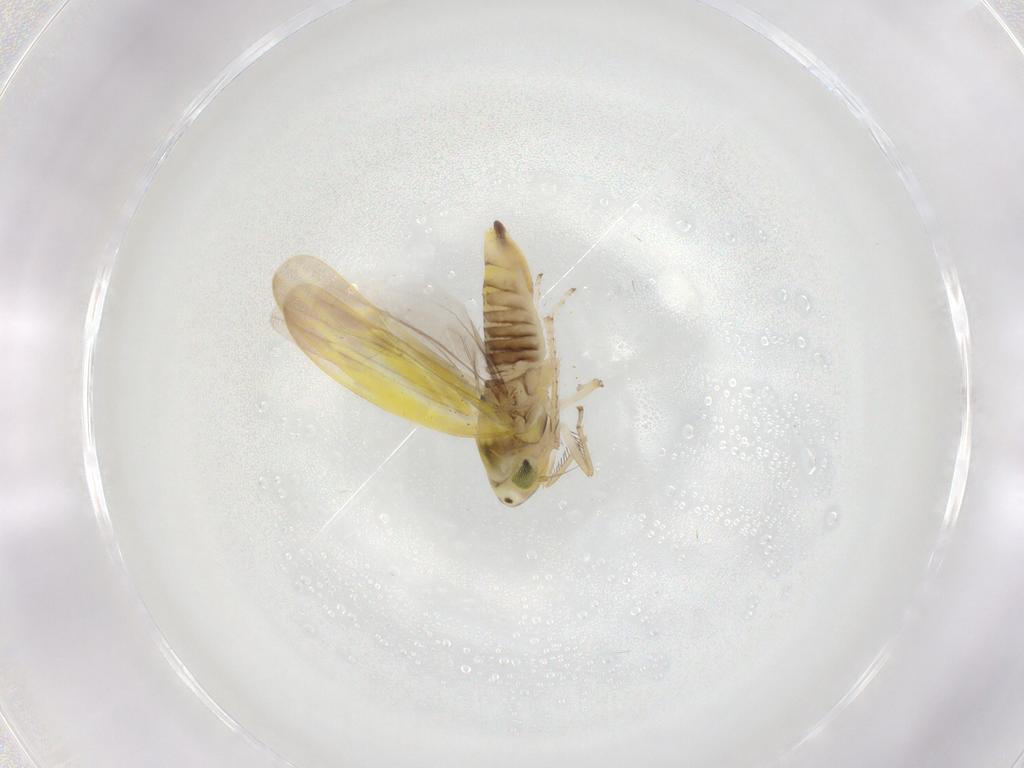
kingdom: Animalia
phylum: Arthropoda
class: Insecta
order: Hemiptera
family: Cicadellidae
